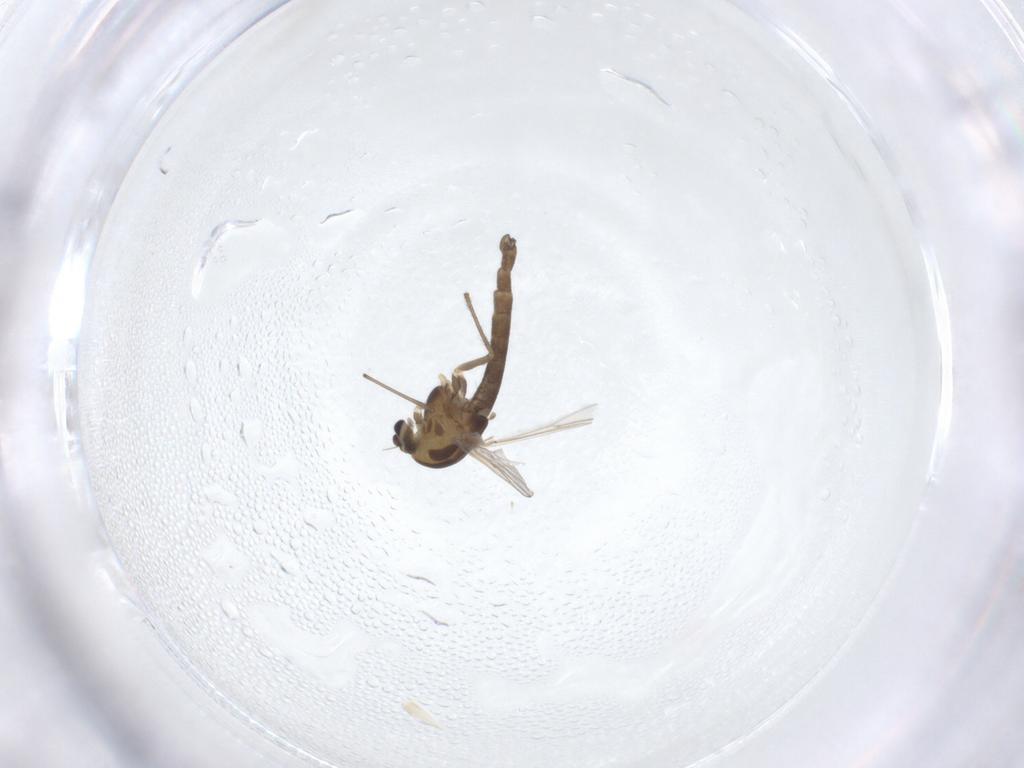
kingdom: Animalia
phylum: Arthropoda
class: Insecta
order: Diptera
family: Chironomidae
